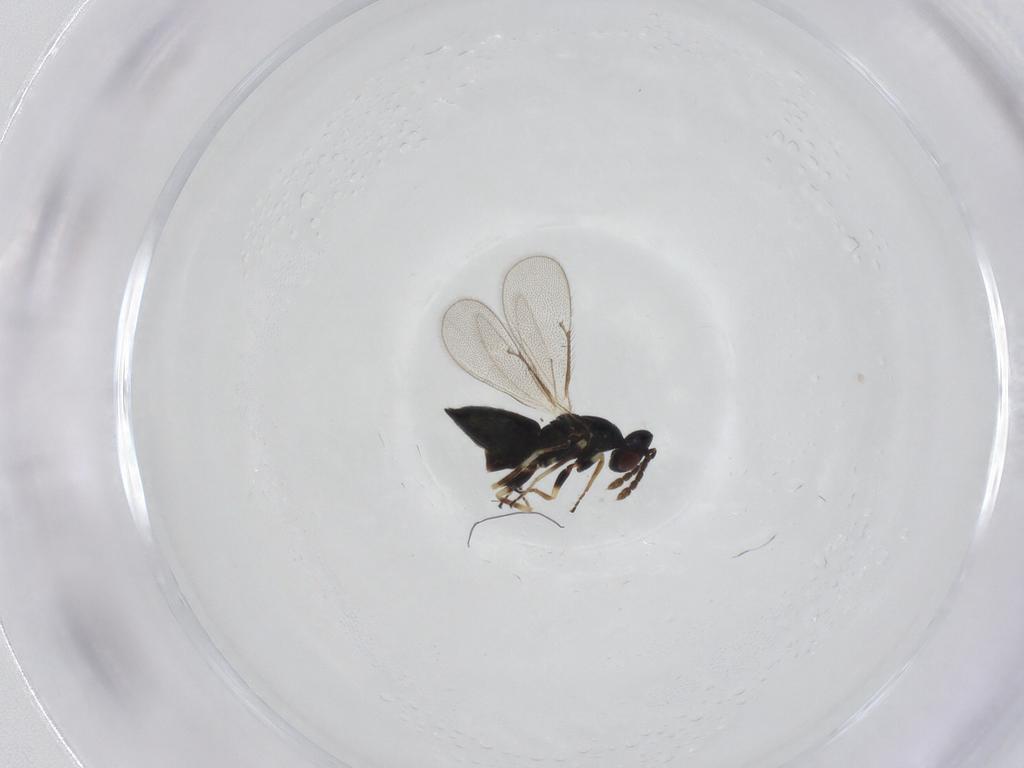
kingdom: Animalia
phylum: Arthropoda
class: Insecta
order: Hymenoptera
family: Eulophidae
